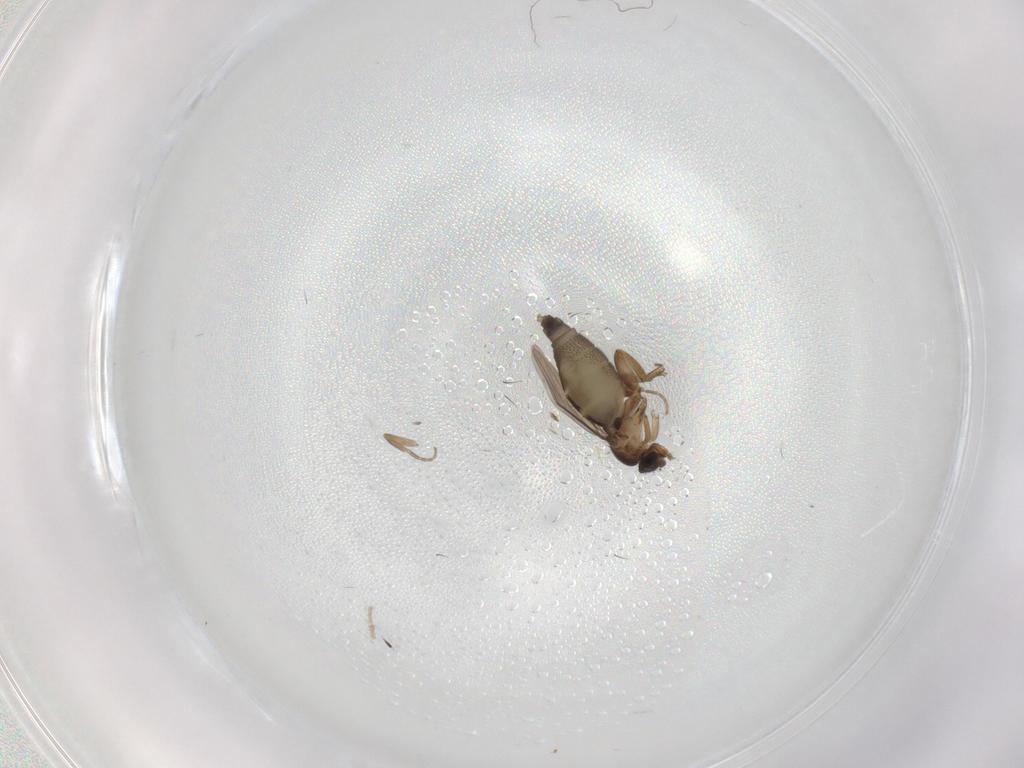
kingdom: Animalia
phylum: Arthropoda
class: Insecta
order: Diptera
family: Phoridae
